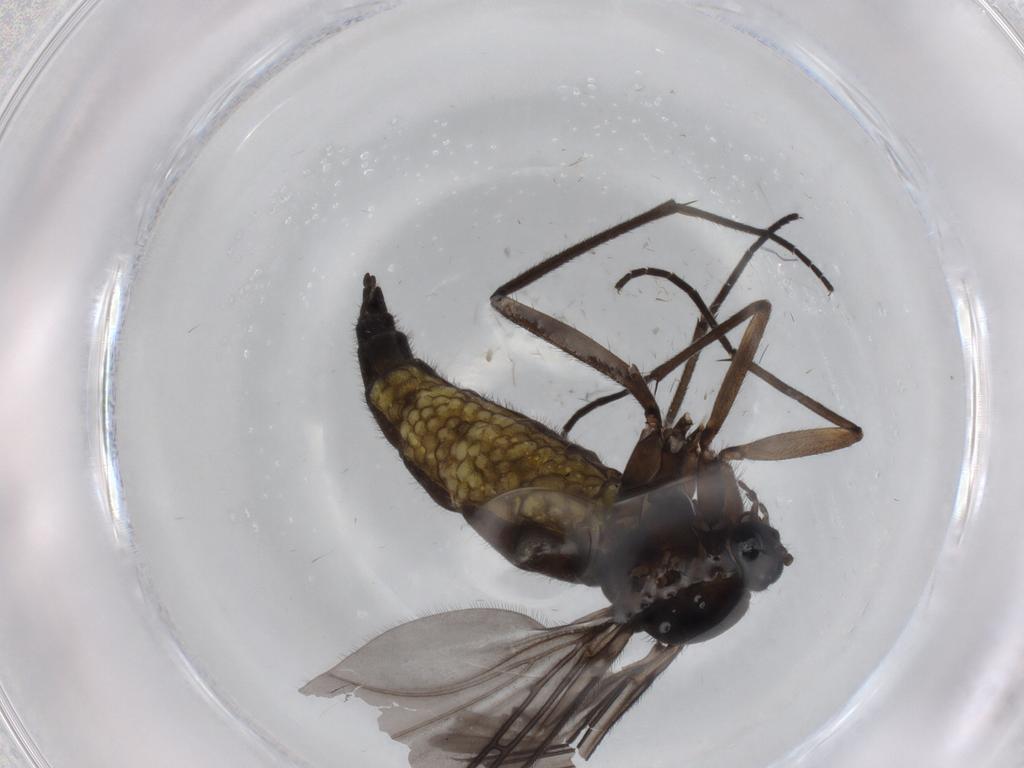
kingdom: Animalia
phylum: Arthropoda
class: Insecta
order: Diptera
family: Sciaridae
